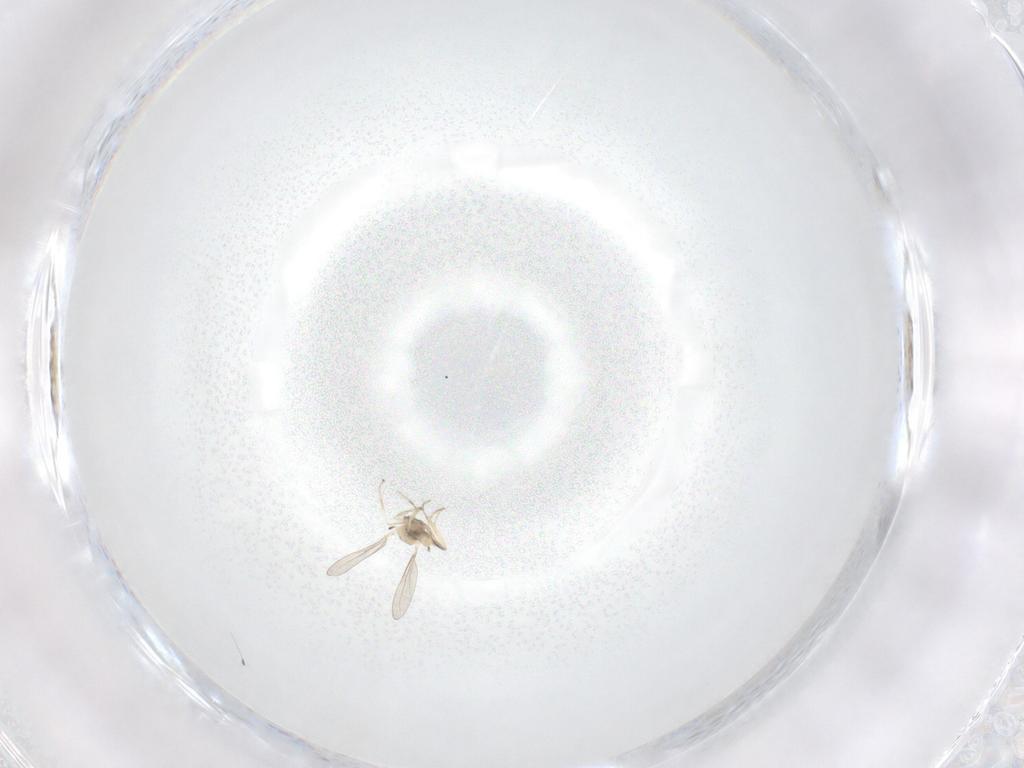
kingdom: Animalia
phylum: Arthropoda
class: Insecta
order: Diptera
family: Cecidomyiidae
